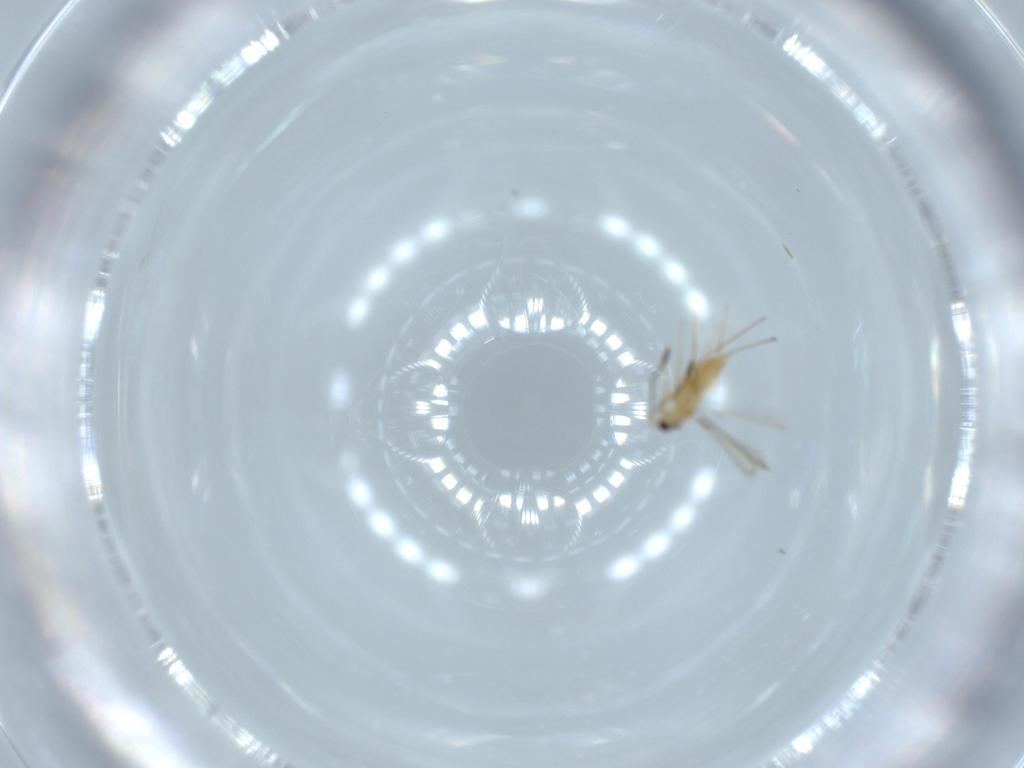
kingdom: Animalia
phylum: Arthropoda
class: Insecta
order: Hymenoptera
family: Mymaridae
